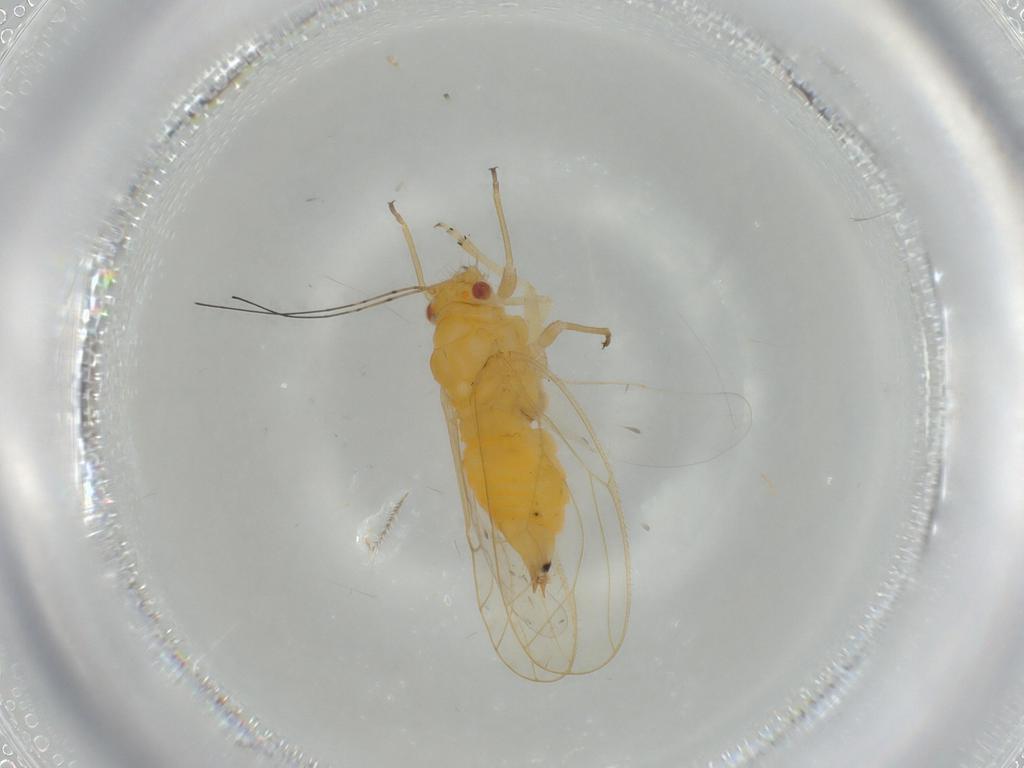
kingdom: Animalia
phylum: Arthropoda
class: Insecta
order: Hemiptera
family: Psyllidae
